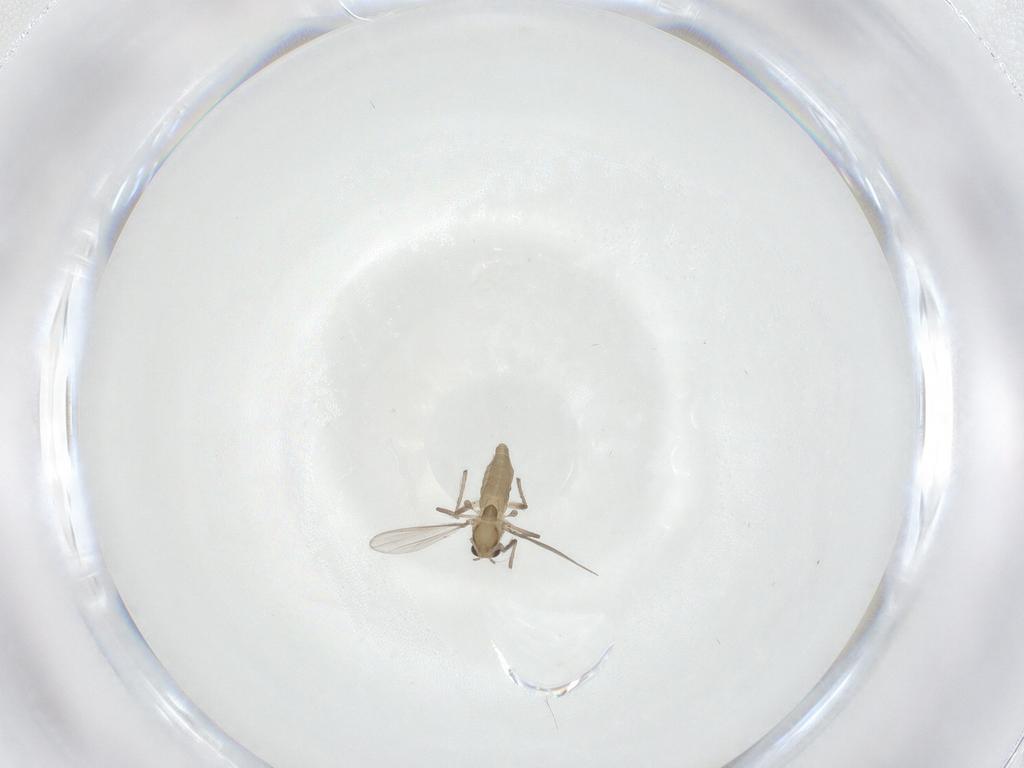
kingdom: Animalia
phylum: Arthropoda
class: Insecta
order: Diptera
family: Chironomidae
